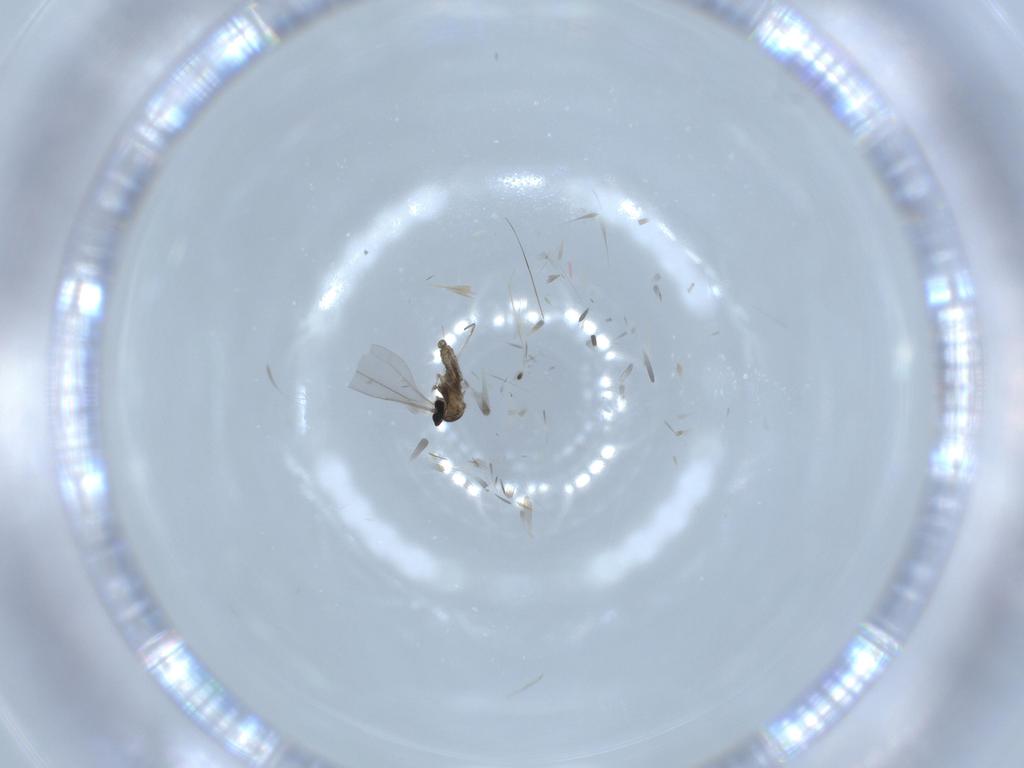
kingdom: Animalia
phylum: Arthropoda
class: Insecta
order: Diptera
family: Cecidomyiidae
